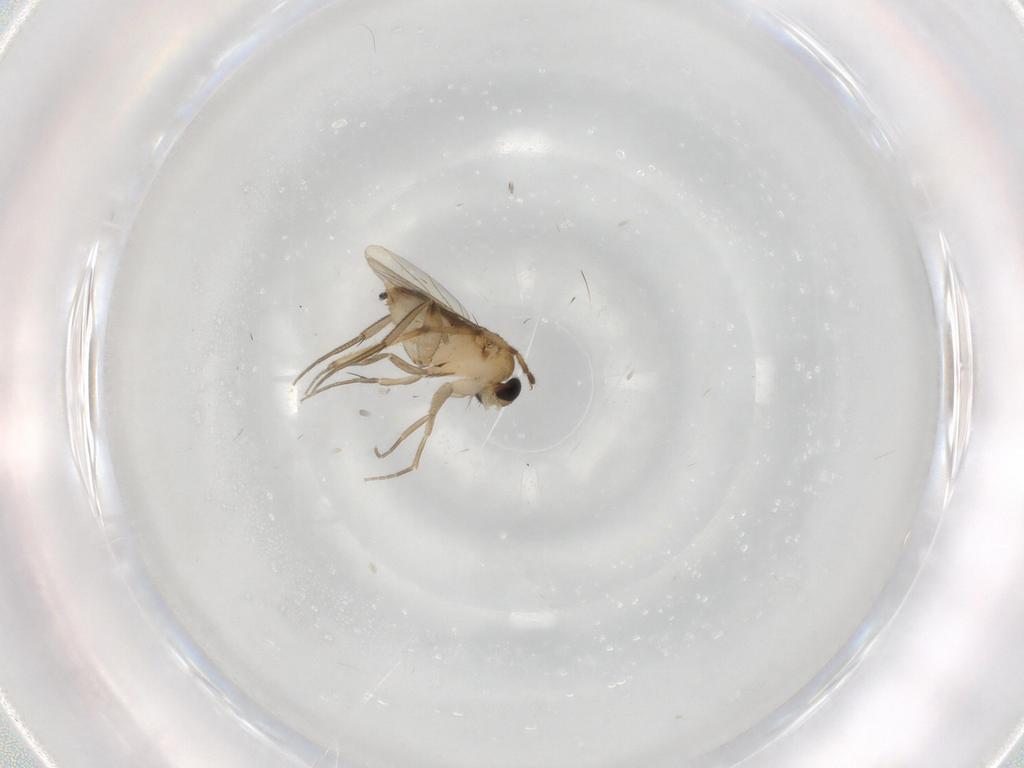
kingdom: Animalia
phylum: Arthropoda
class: Insecta
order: Diptera
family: Phoridae
